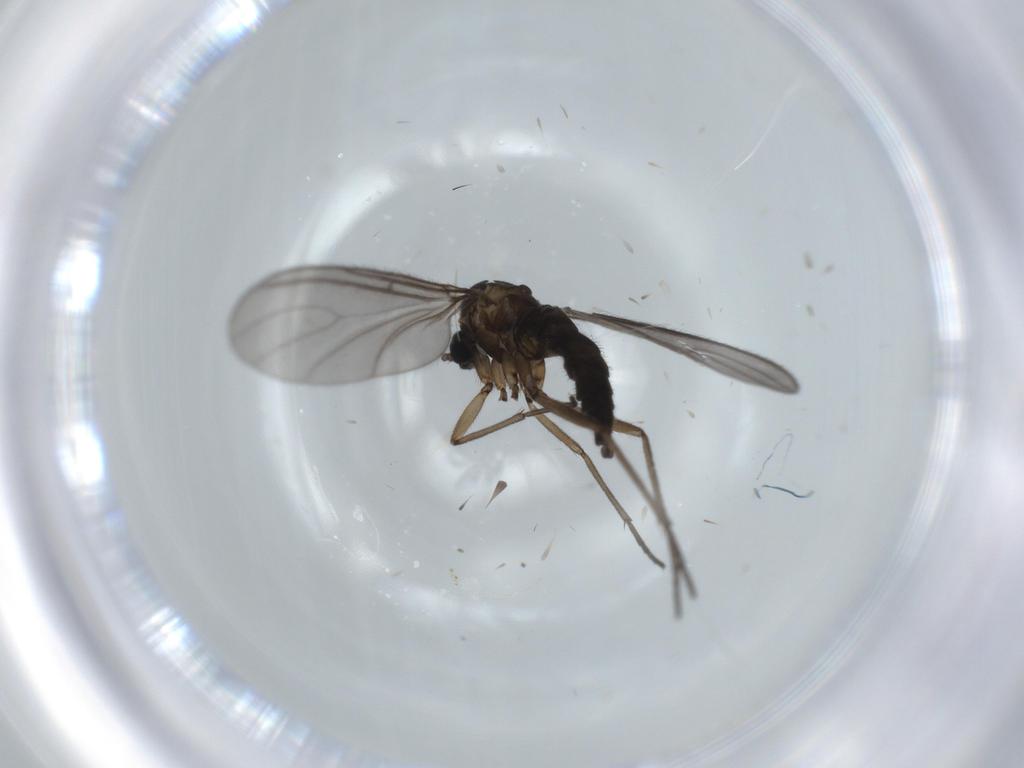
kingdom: Animalia
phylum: Arthropoda
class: Insecta
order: Diptera
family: Sciaridae
